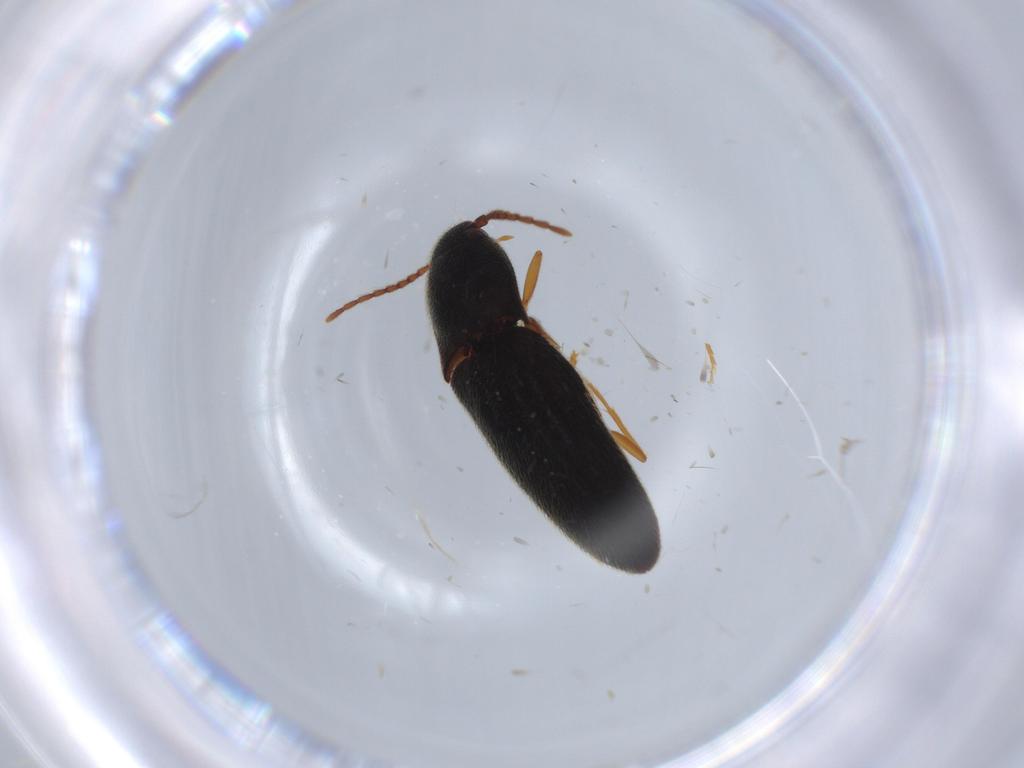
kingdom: Animalia
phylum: Arthropoda
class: Insecta
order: Coleoptera
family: Elateridae
